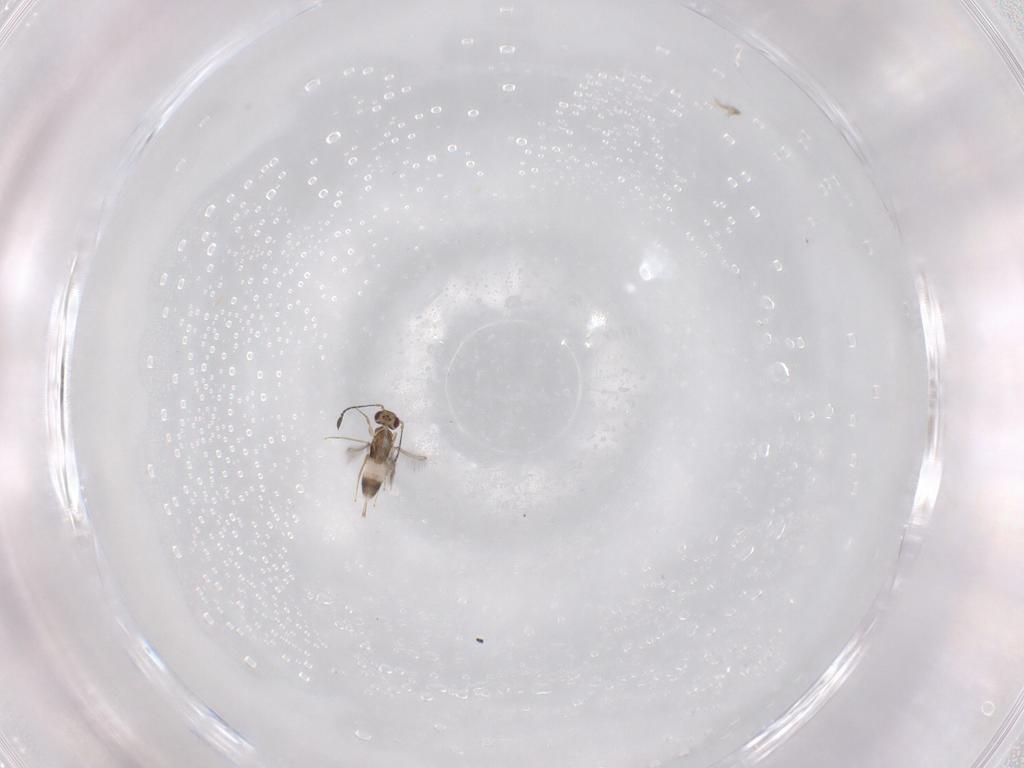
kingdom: Animalia
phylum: Arthropoda
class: Insecta
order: Hymenoptera
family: Mymaridae
